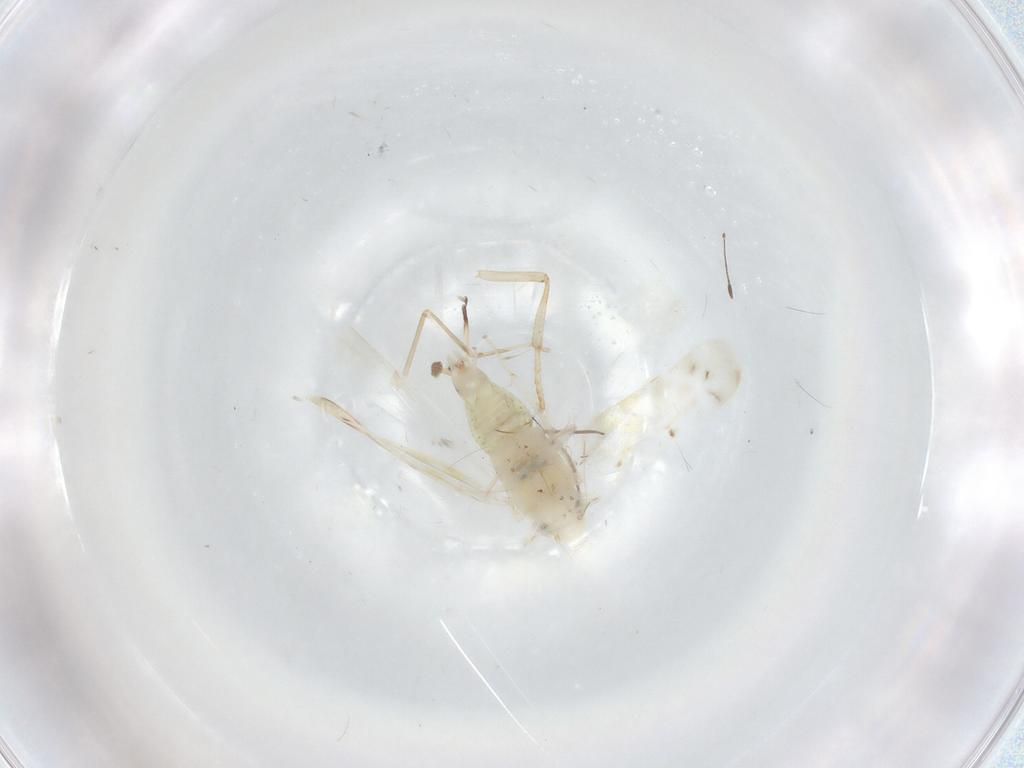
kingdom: Animalia
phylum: Arthropoda
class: Insecta
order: Hemiptera
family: Cicadellidae
